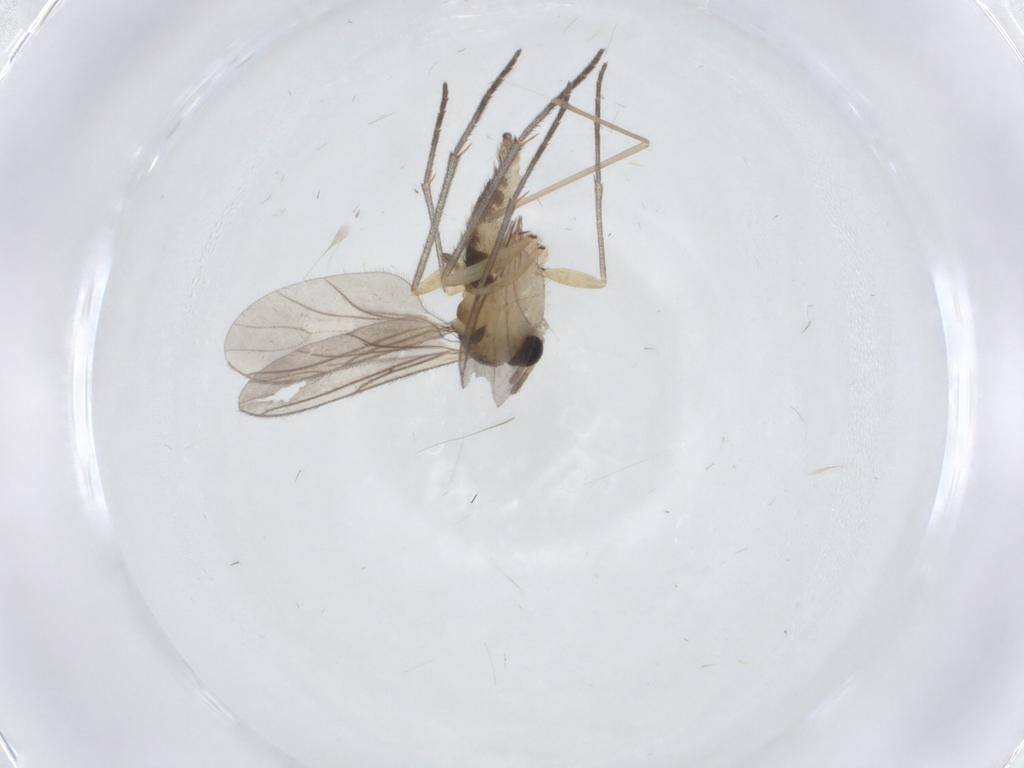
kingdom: Animalia
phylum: Arthropoda
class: Insecta
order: Diptera
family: Sciaridae
